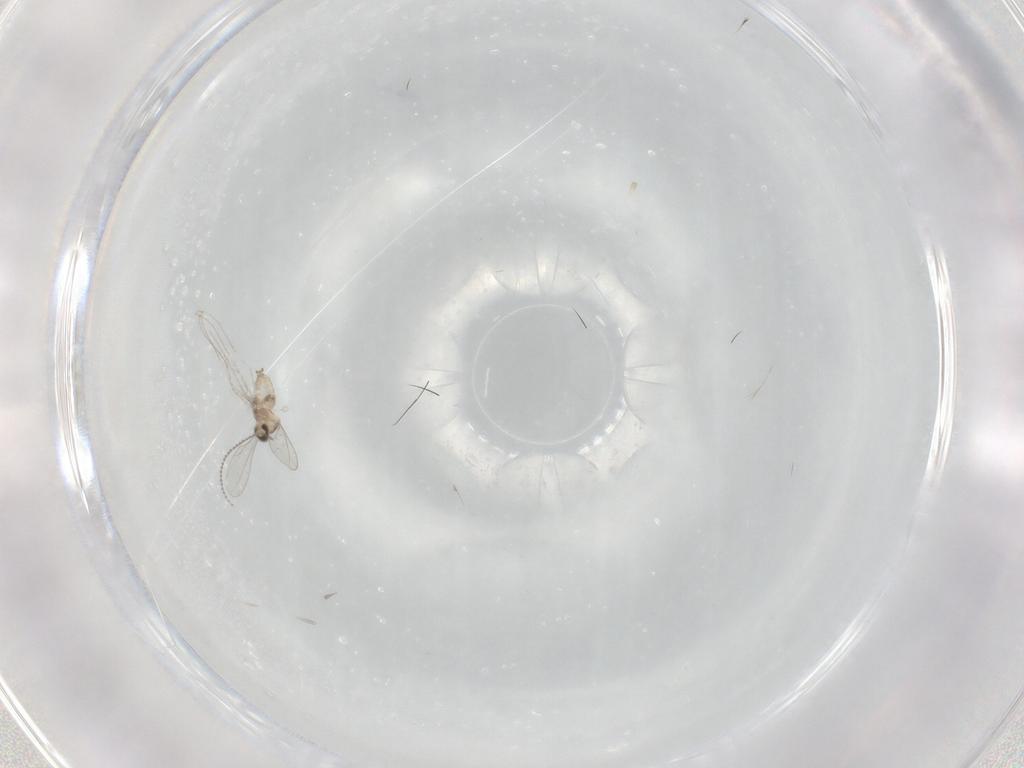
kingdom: Animalia
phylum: Arthropoda
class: Insecta
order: Diptera
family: Cecidomyiidae
